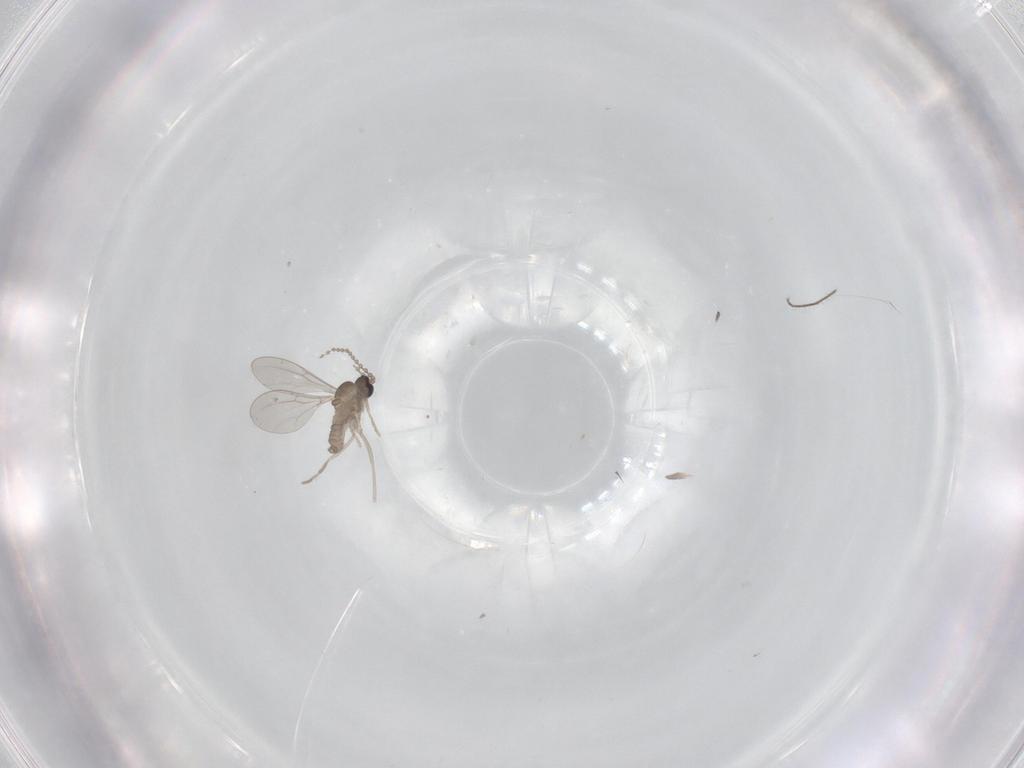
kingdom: Animalia
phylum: Arthropoda
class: Insecta
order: Diptera
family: Cecidomyiidae
